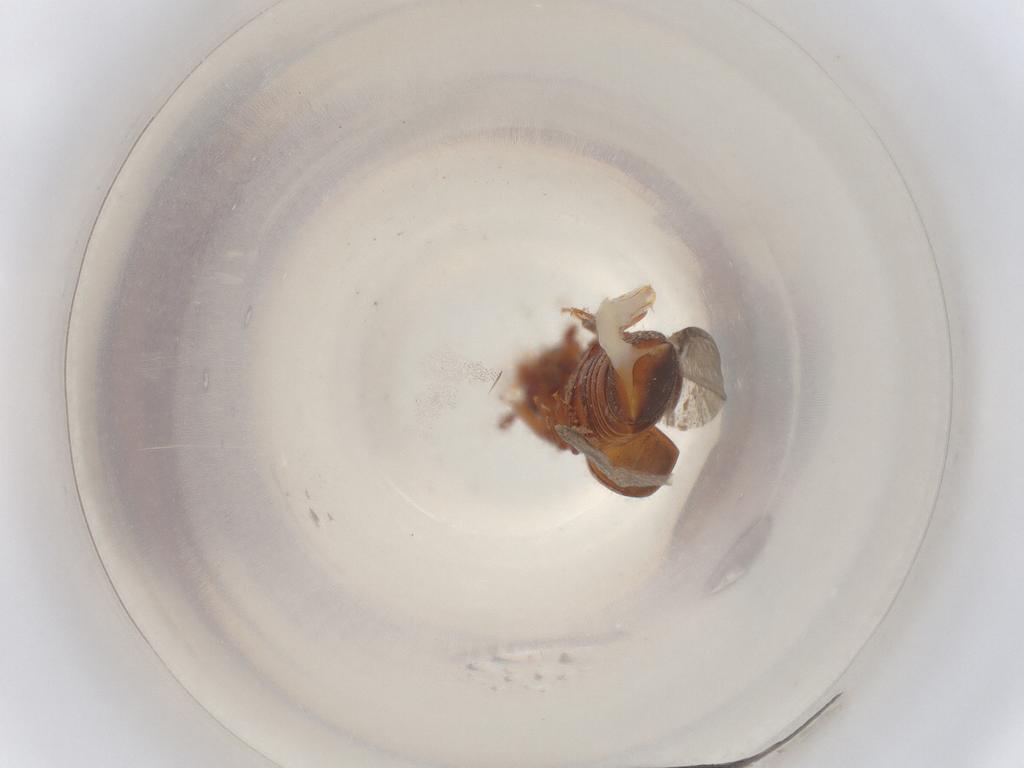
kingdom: Animalia
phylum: Arthropoda
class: Insecta
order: Coleoptera
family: Nitidulidae
